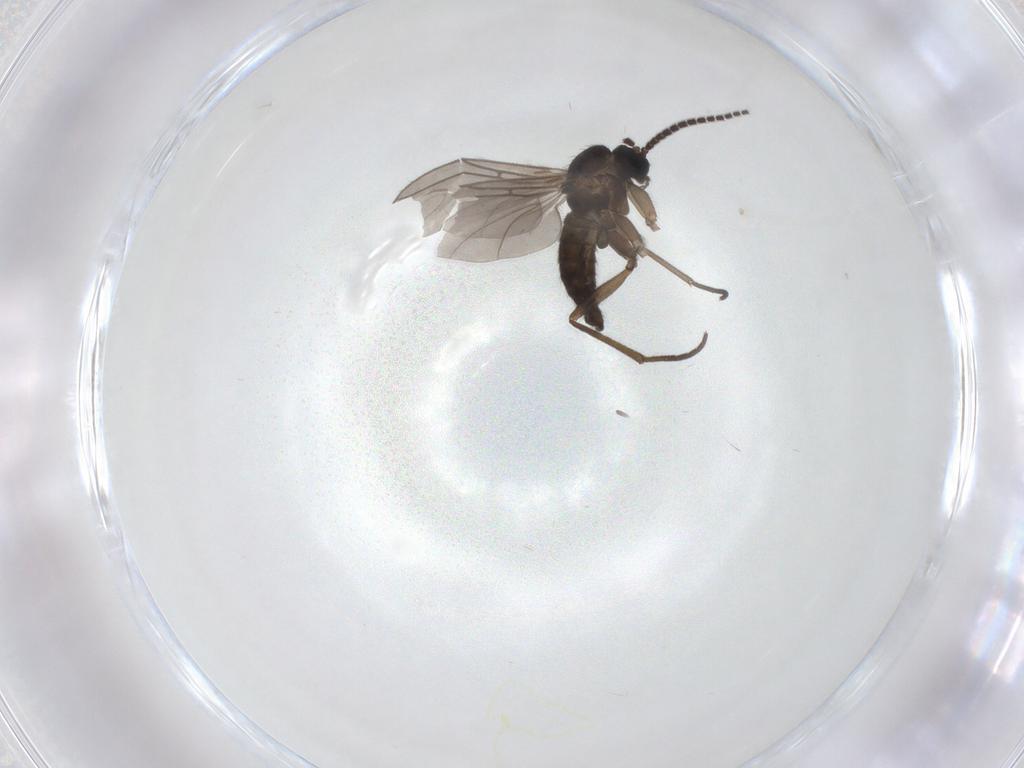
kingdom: Animalia
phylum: Arthropoda
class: Insecta
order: Diptera
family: Sciaridae
